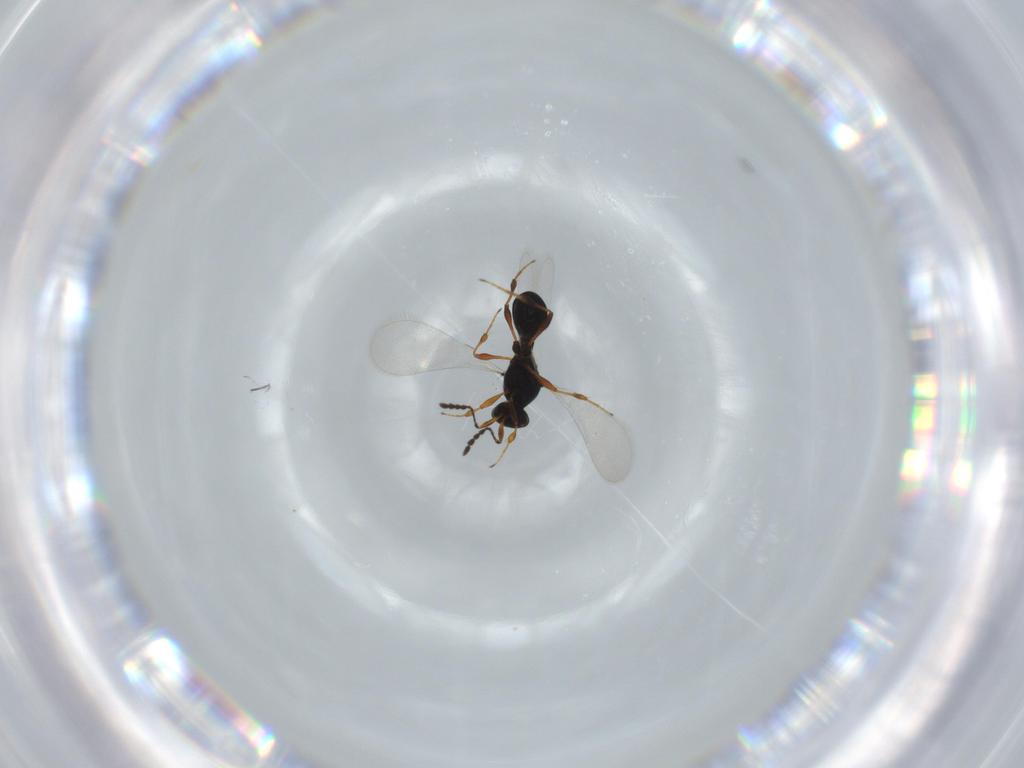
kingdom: Animalia
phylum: Arthropoda
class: Insecta
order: Hymenoptera
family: Platygastridae
